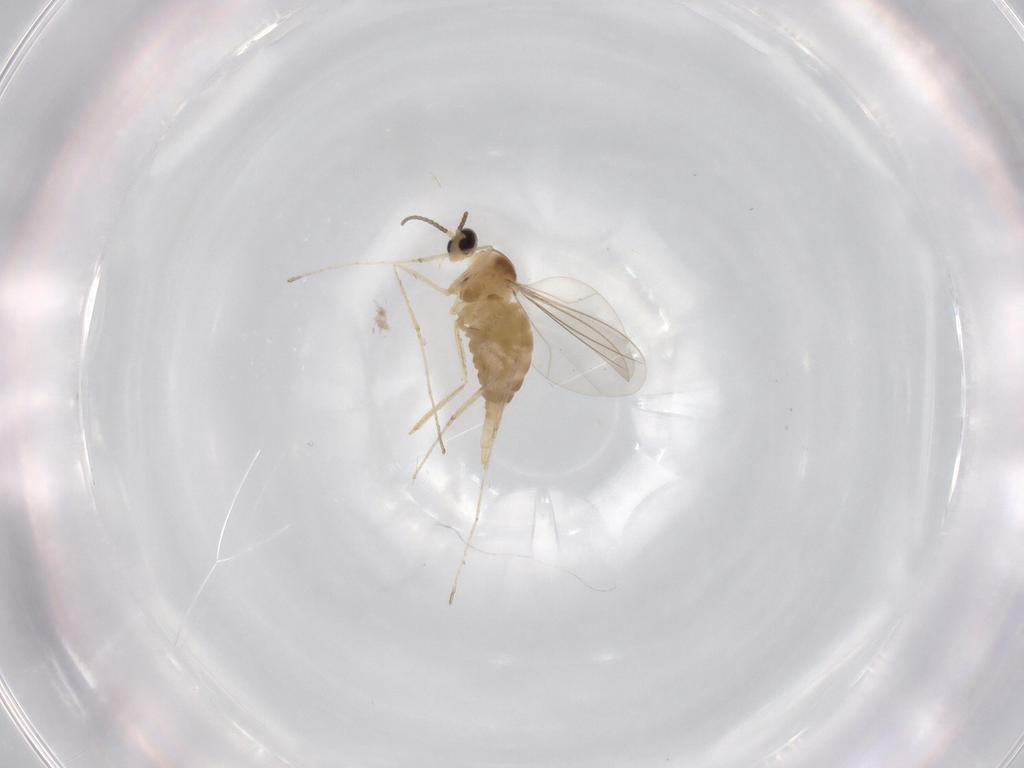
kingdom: Animalia
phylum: Arthropoda
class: Insecta
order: Diptera
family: Cecidomyiidae
